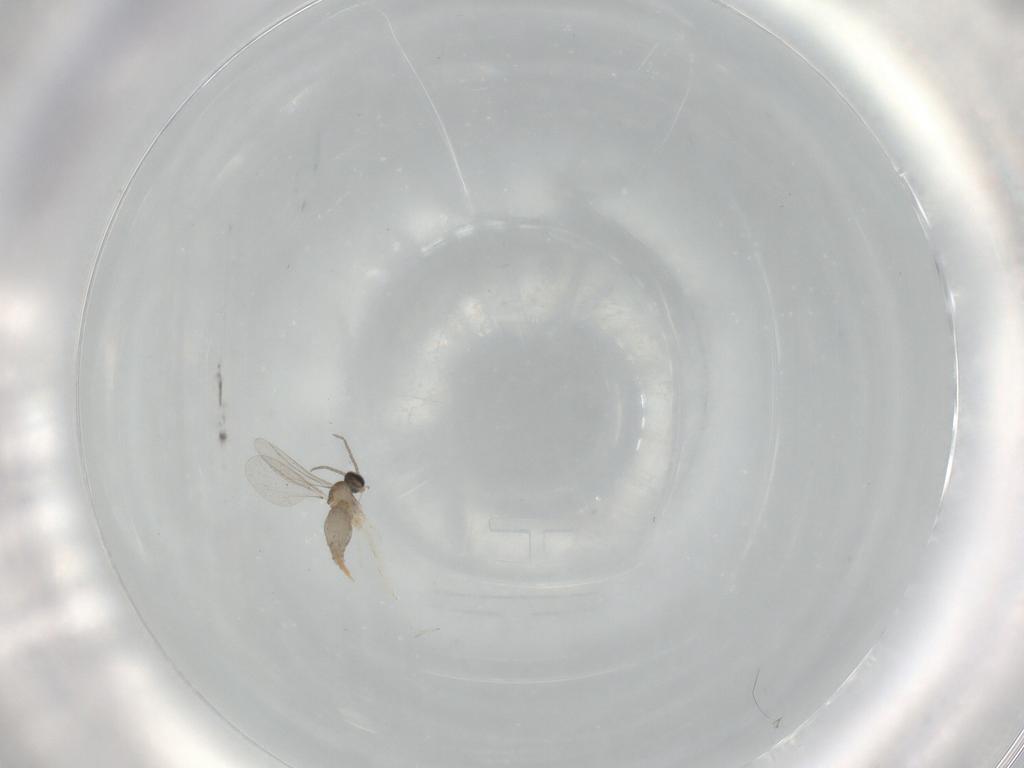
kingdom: Animalia
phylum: Arthropoda
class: Insecta
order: Diptera
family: Cecidomyiidae
